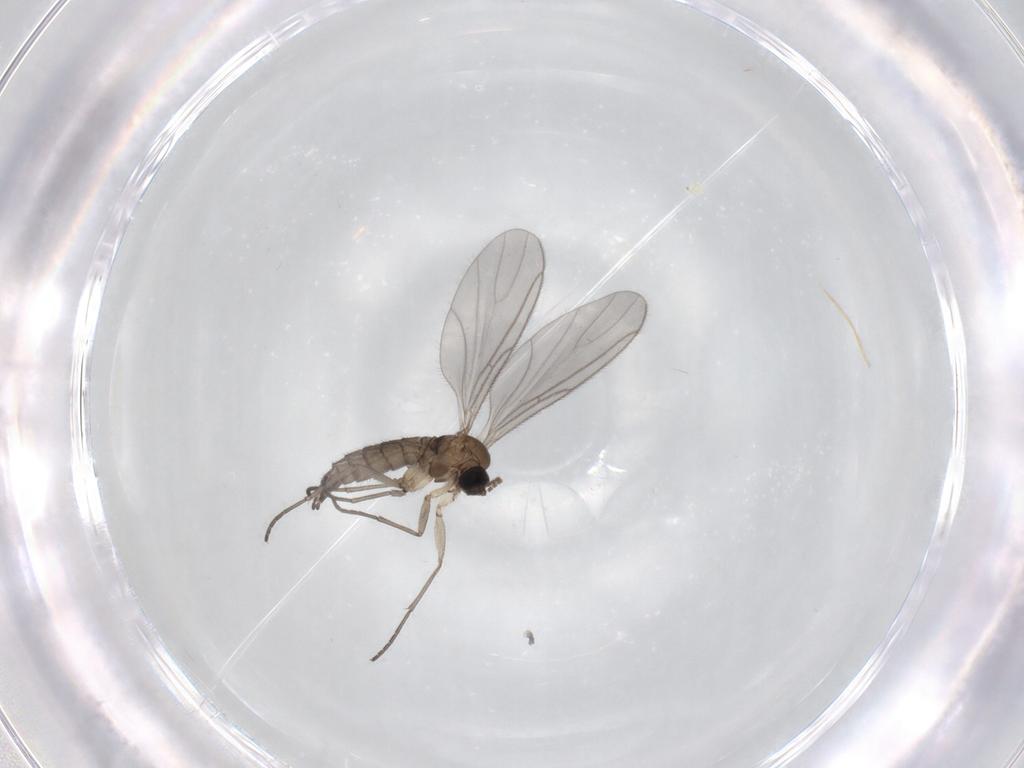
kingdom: Animalia
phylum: Arthropoda
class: Insecta
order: Diptera
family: Sciaridae
